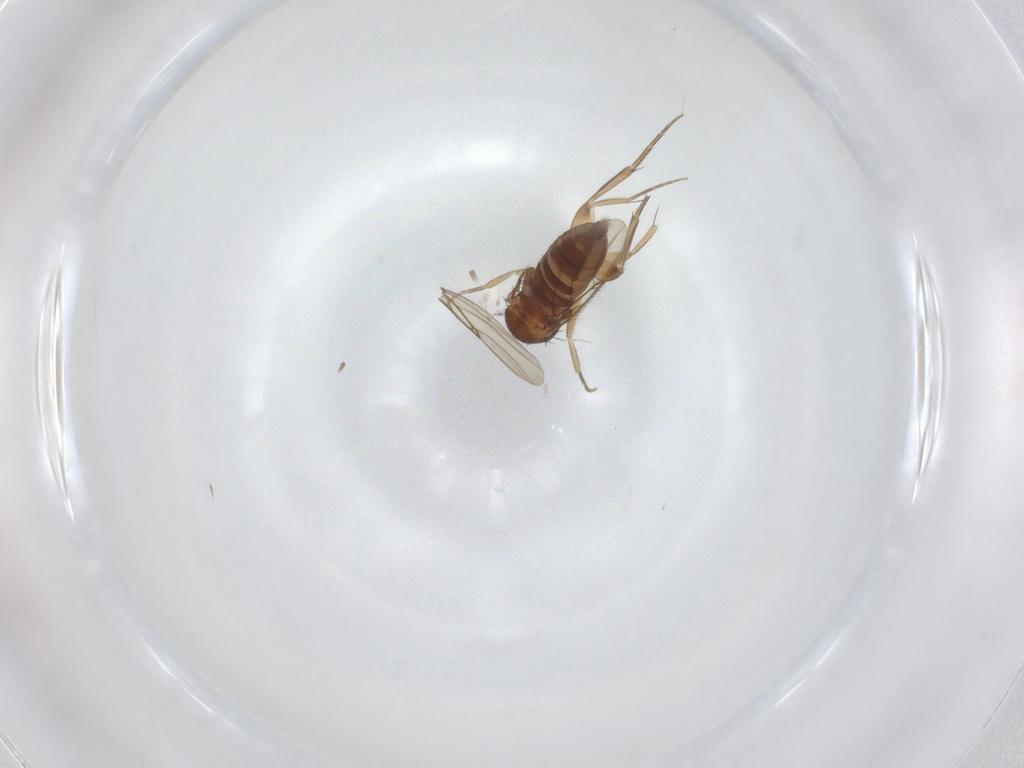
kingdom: Animalia
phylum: Arthropoda
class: Insecta
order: Diptera
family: Phoridae
